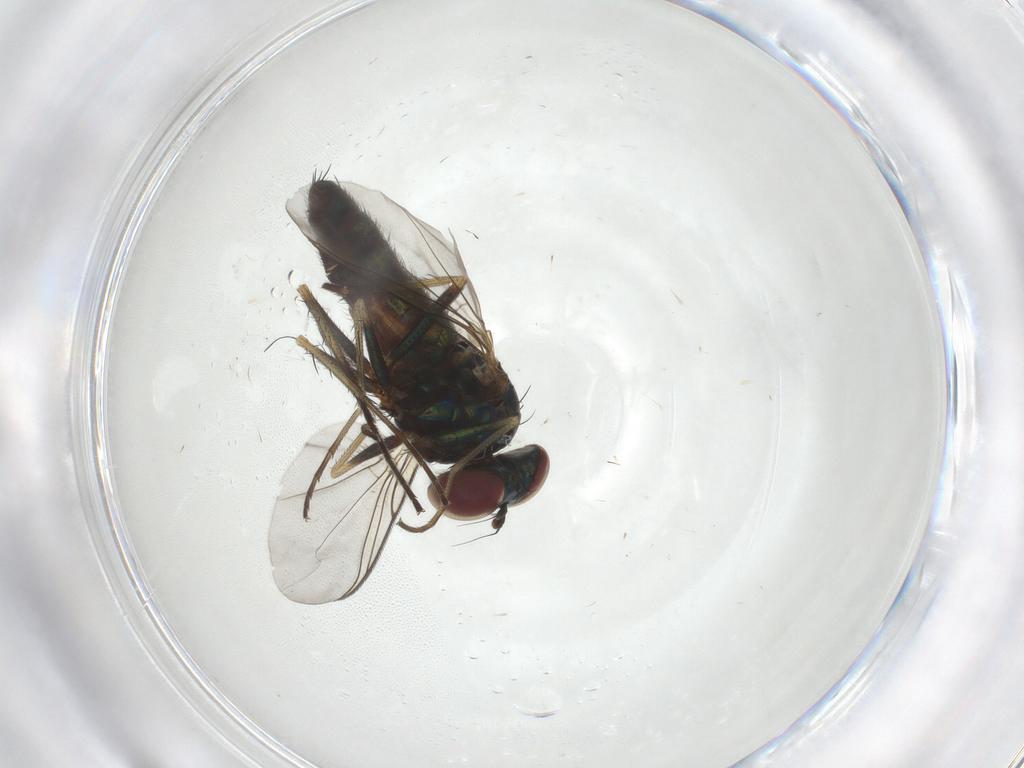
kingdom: Animalia
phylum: Arthropoda
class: Insecta
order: Diptera
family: Dolichopodidae
